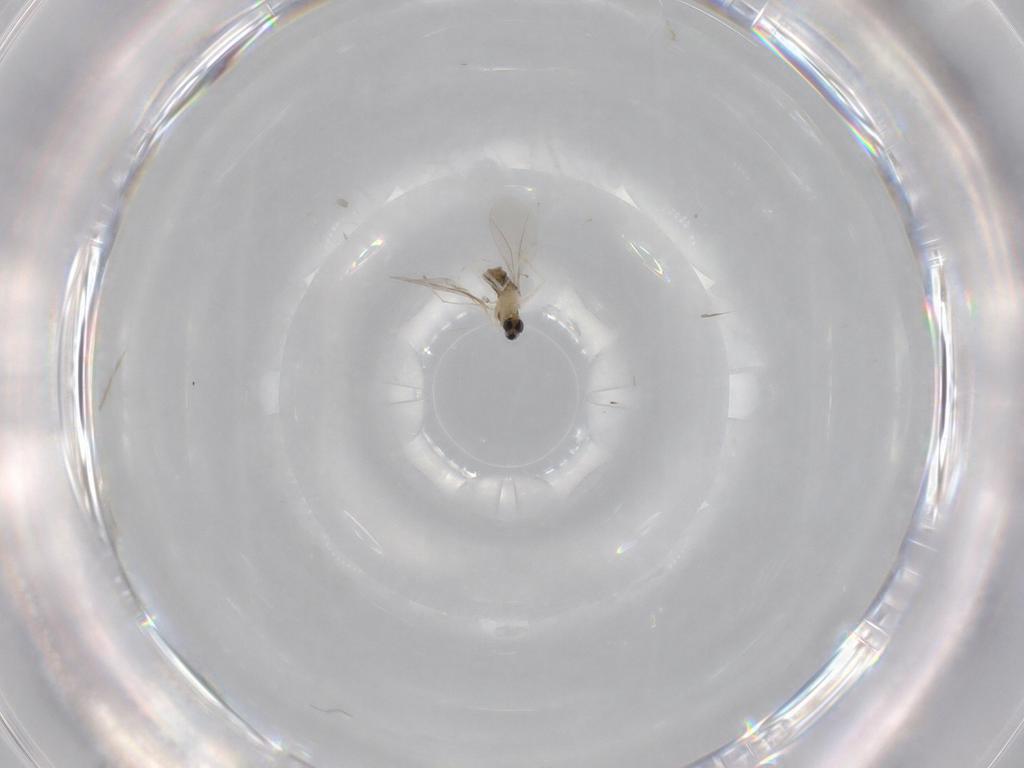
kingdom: Animalia
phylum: Arthropoda
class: Insecta
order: Diptera
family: Cecidomyiidae
